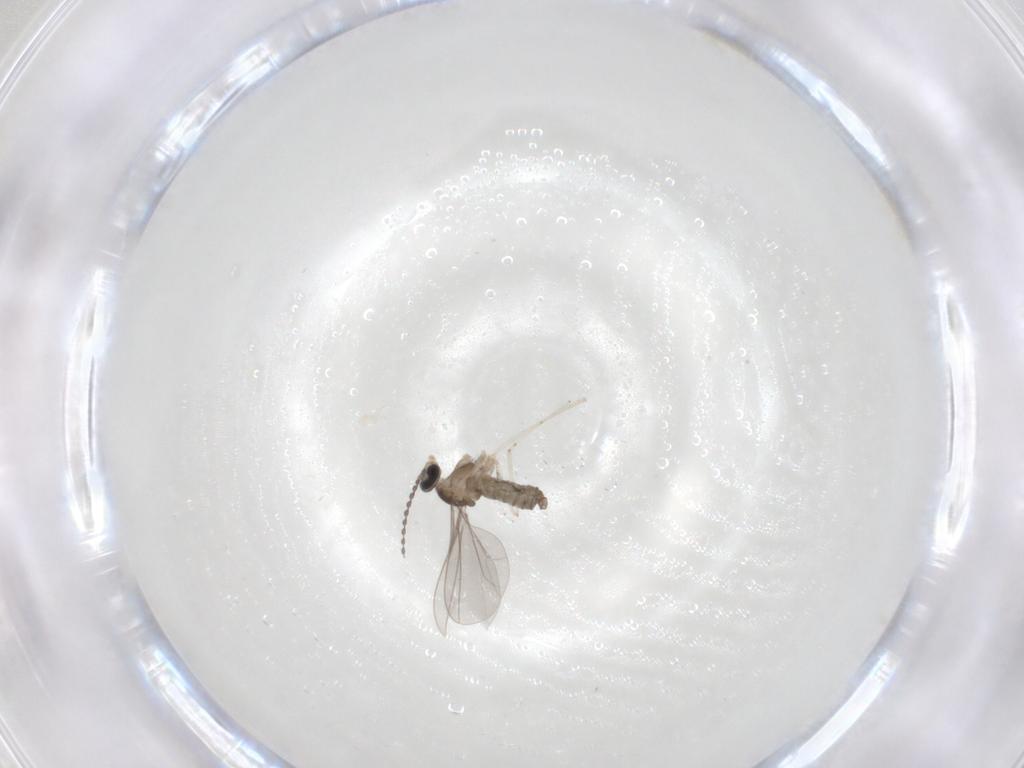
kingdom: Animalia
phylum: Arthropoda
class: Insecta
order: Diptera
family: Cecidomyiidae
